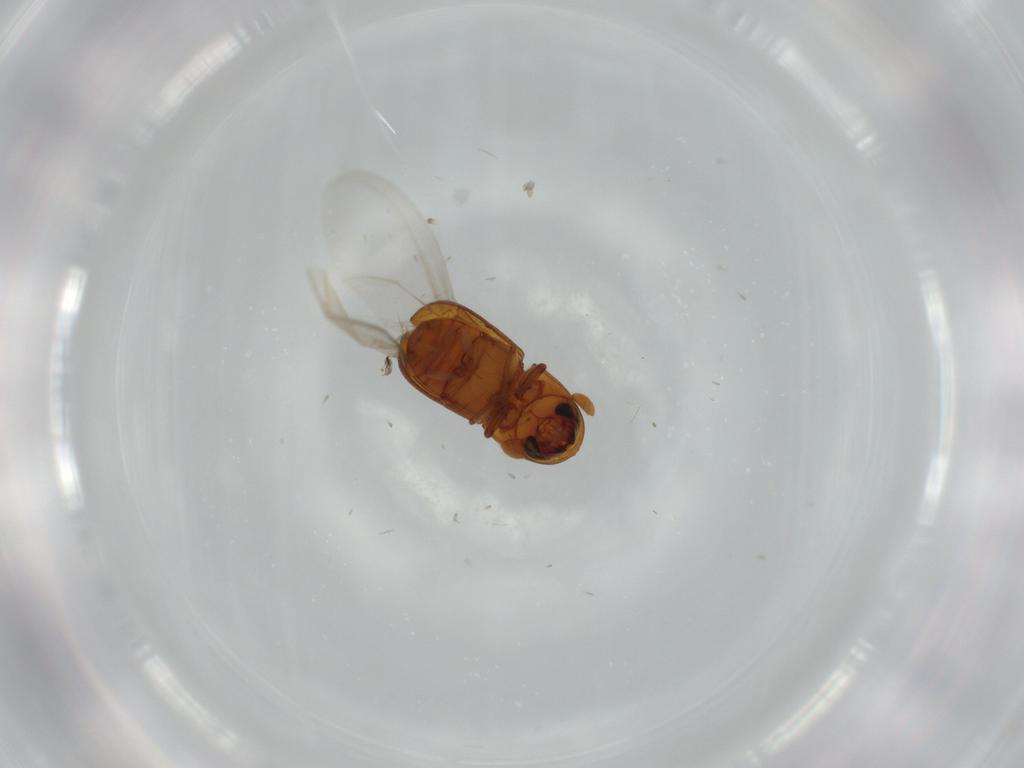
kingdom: Animalia
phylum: Arthropoda
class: Insecta
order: Coleoptera
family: Curculionidae
